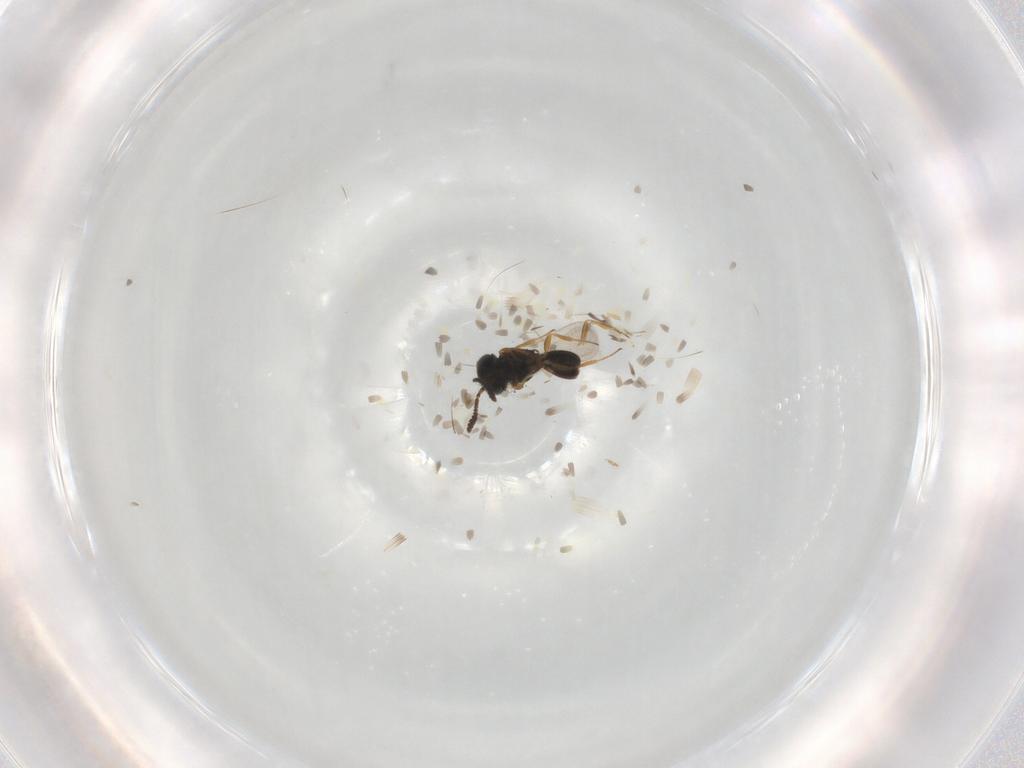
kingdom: Animalia
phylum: Arthropoda
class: Insecta
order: Hymenoptera
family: Scelionidae
